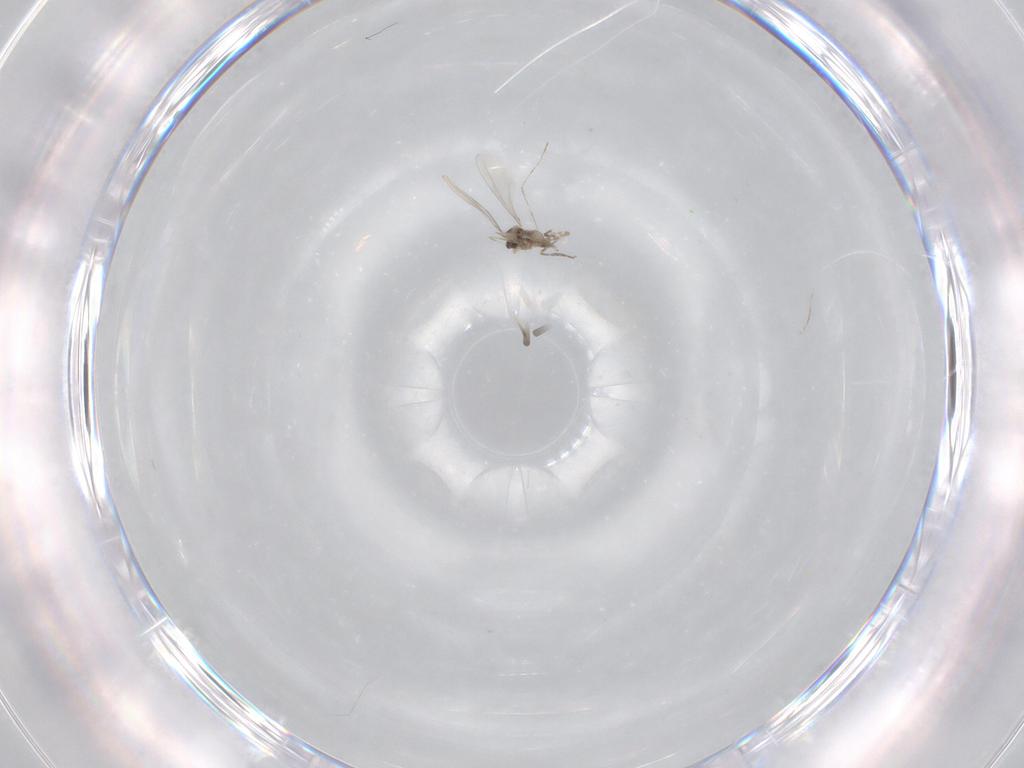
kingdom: Animalia
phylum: Arthropoda
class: Insecta
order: Diptera
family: Cecidomyiidae
